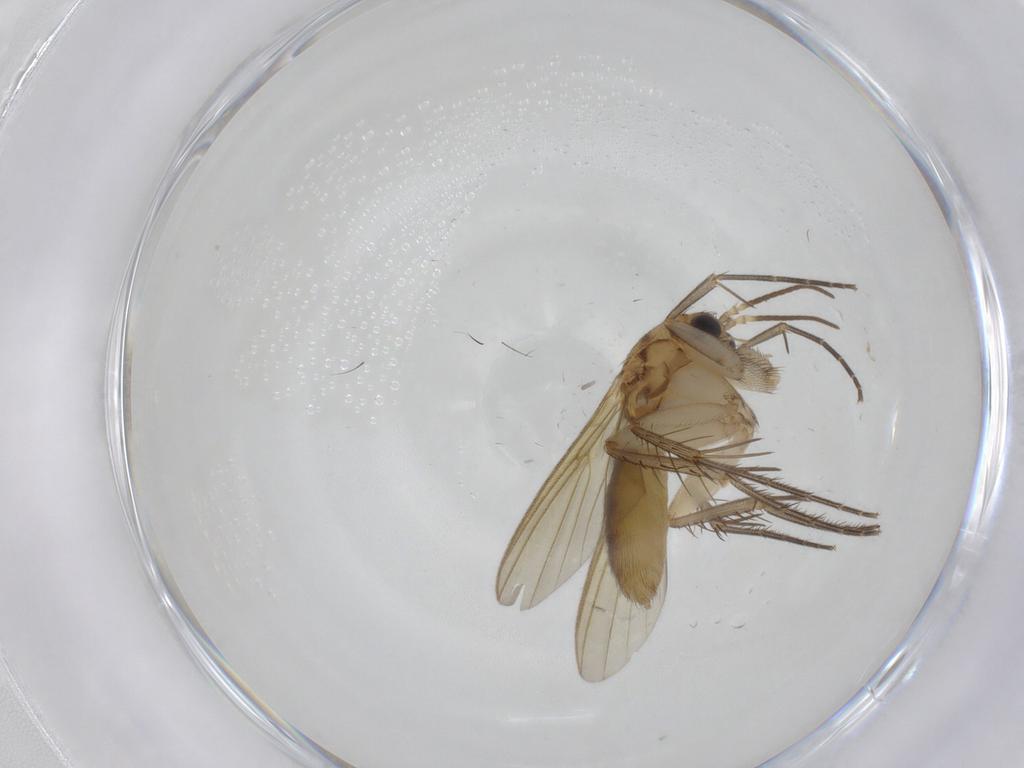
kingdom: Animalia
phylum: Arthropoda
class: Insecta
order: Diptera
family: Mycetophilidae
